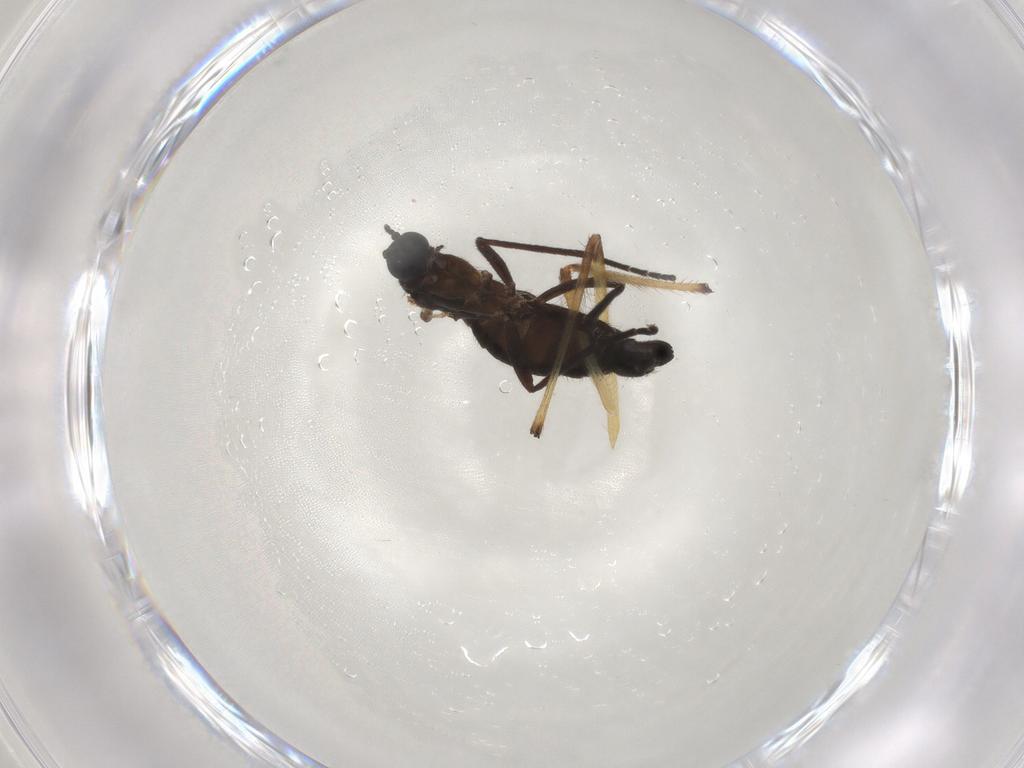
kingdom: Animalia
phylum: Arthropoda
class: Insecta
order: Diptera
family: Chironomidae
